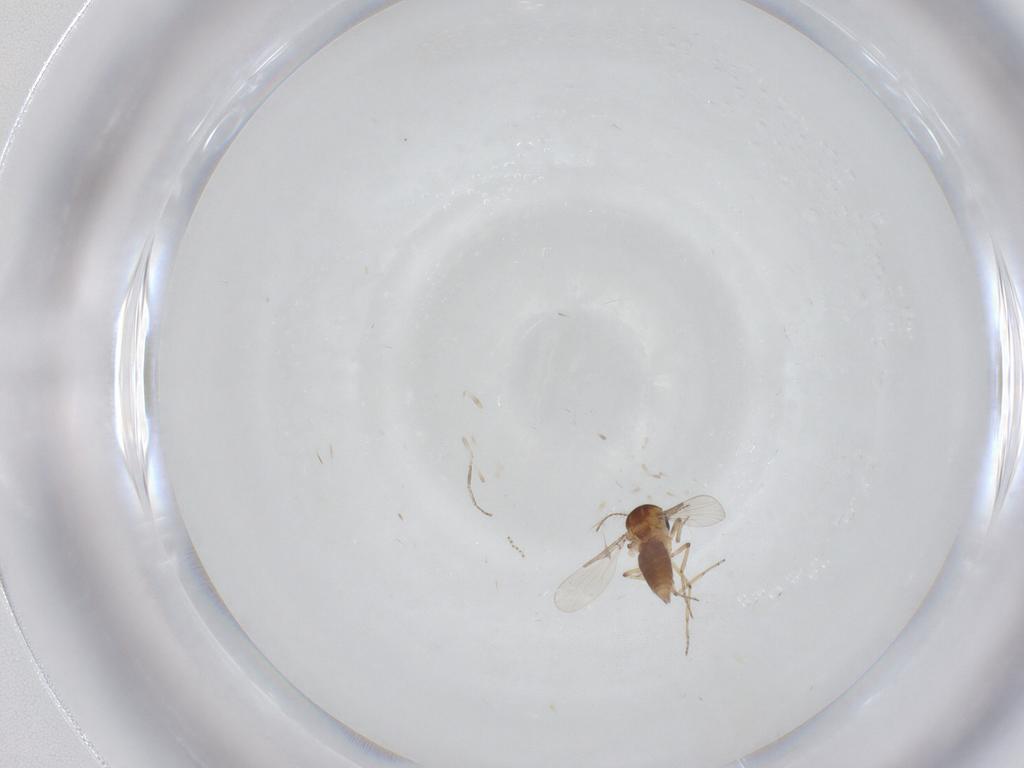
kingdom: Animalia
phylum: Arthropoda
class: Insecta
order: Diptera
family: Ceratopogonidae
